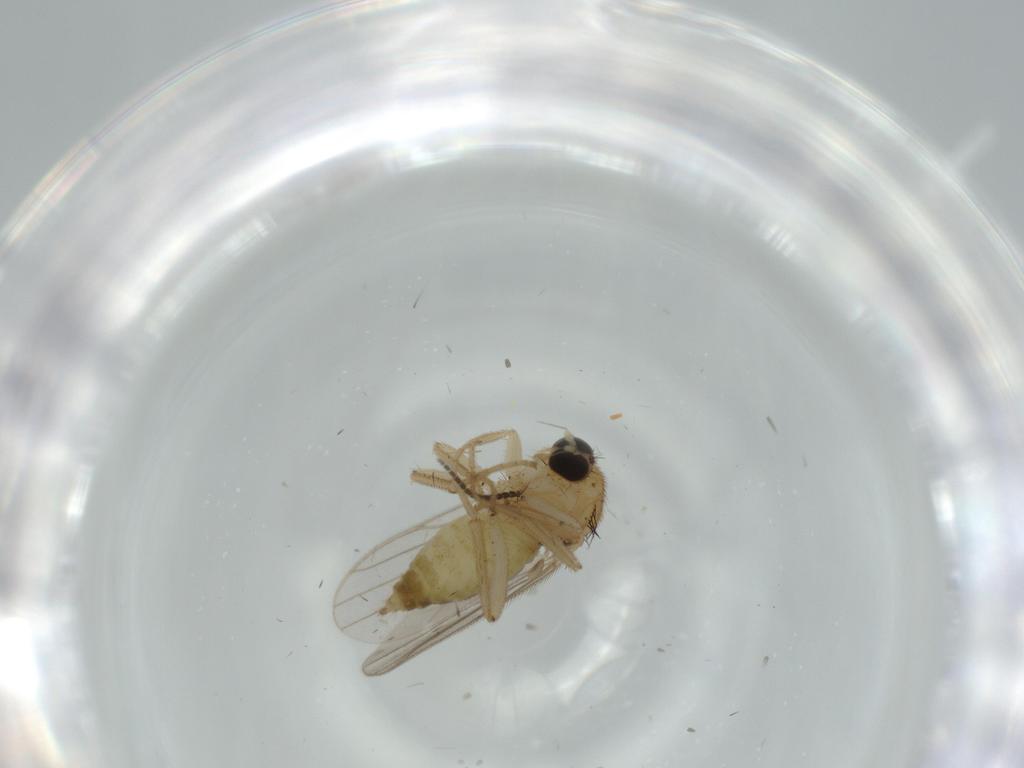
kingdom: Animalia
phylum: Arthropoda
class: Insecta
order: Diptera
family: Hybotidae
